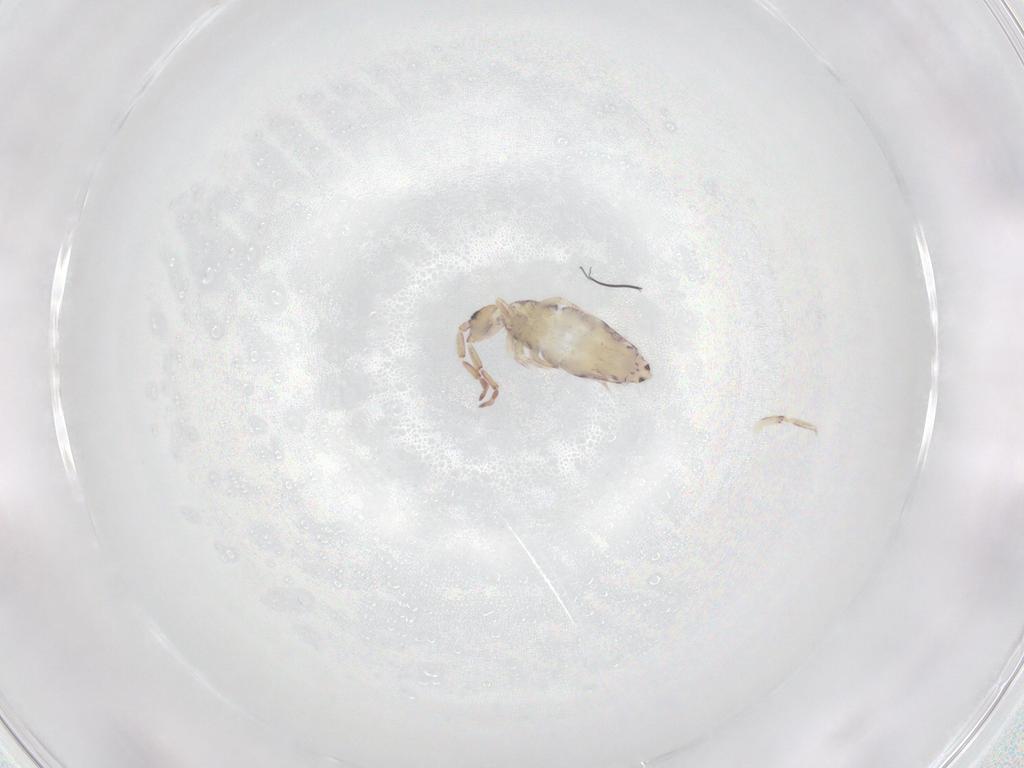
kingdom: Animalia
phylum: Arthropoda
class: Collembola
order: Entomobryomorpha
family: Entomobryidae
